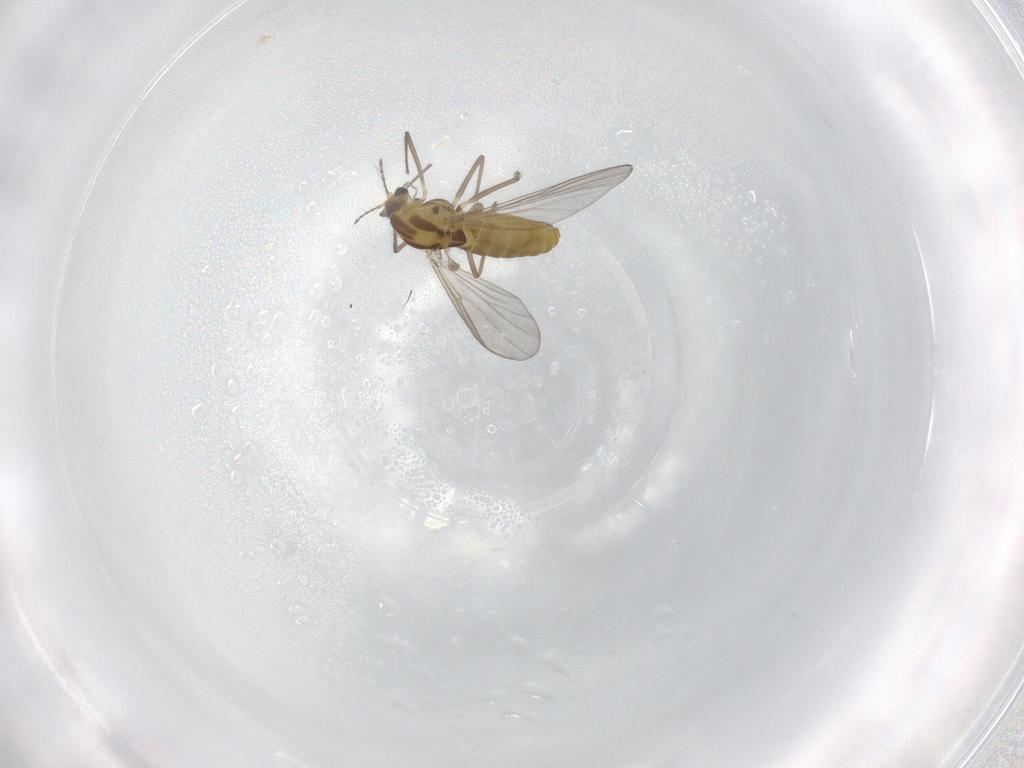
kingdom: Animalia
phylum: Arthropoda
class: Insecta
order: Diptera
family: Chironomidae
